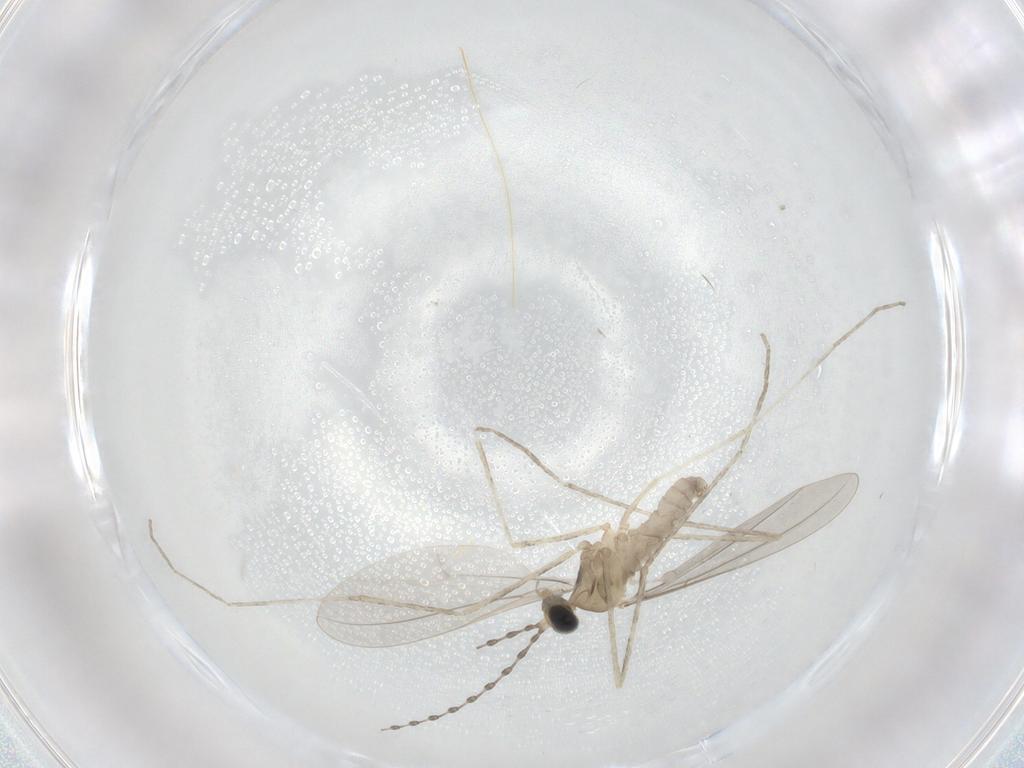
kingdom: Animalia
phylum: Arthropoda
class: Insecta
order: Diptera
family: Cecidomyiidae
